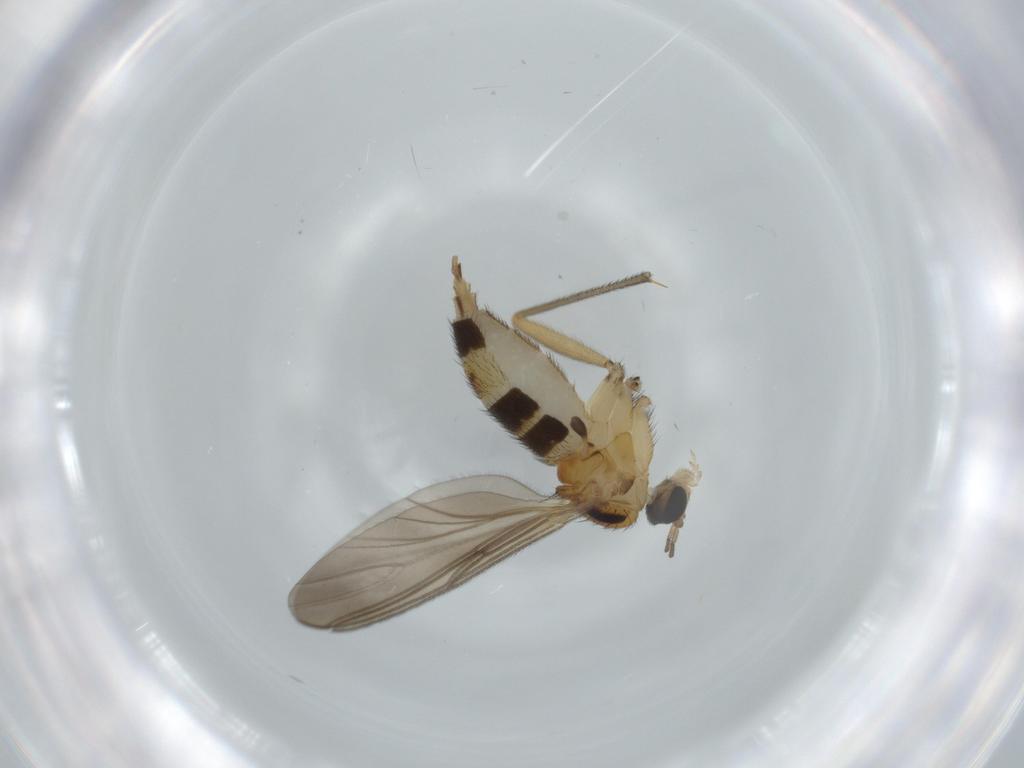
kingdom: Animalia
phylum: Arthropoda
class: Insecta
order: Diptera
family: Sciaridae
